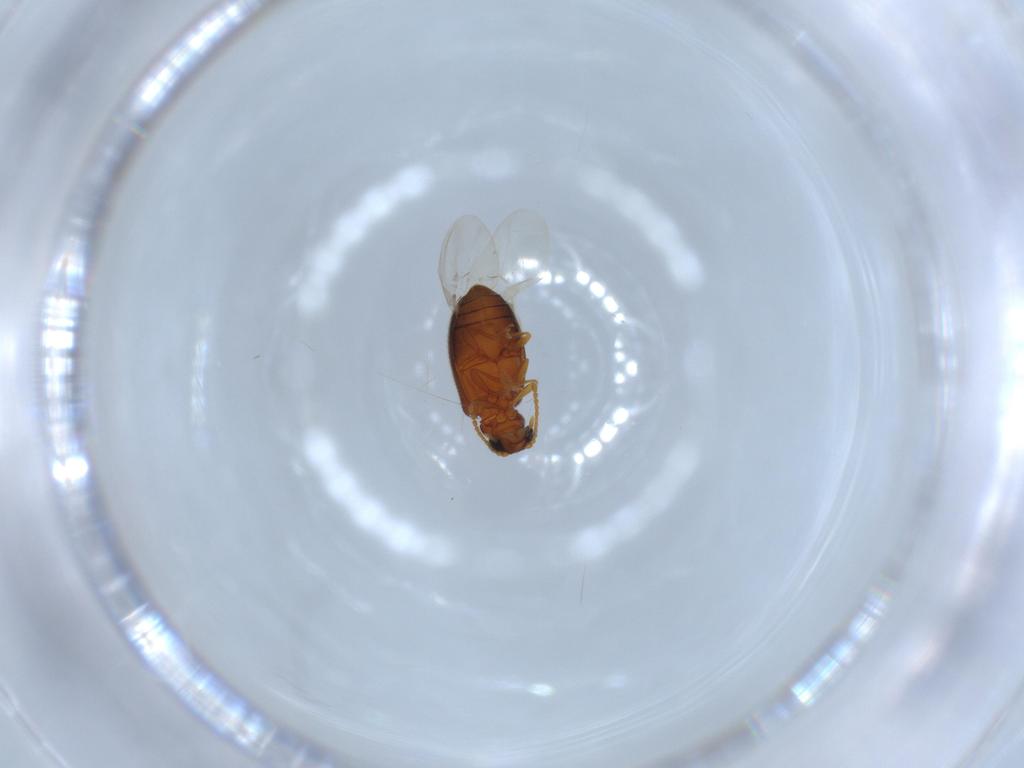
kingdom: Animalia
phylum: Arthropoda
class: Insecta
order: Coleoptera
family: Aderidae
